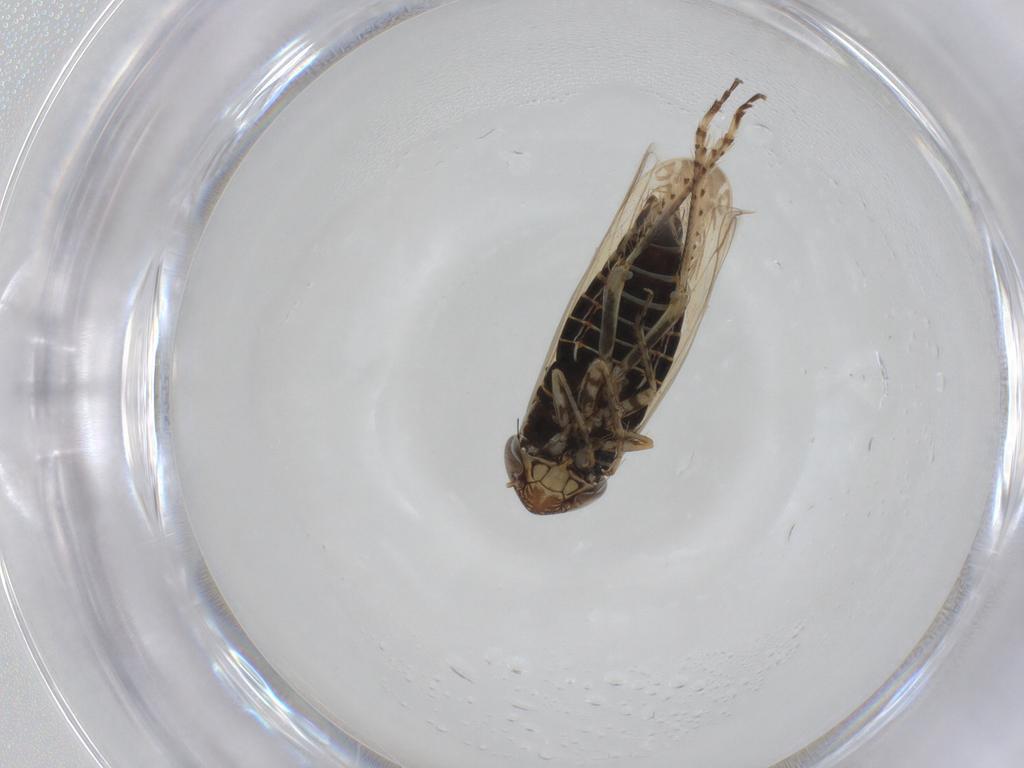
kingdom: Animalia
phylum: Arthropoda
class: Insecta
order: Hemiptera
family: Cicadellidae
